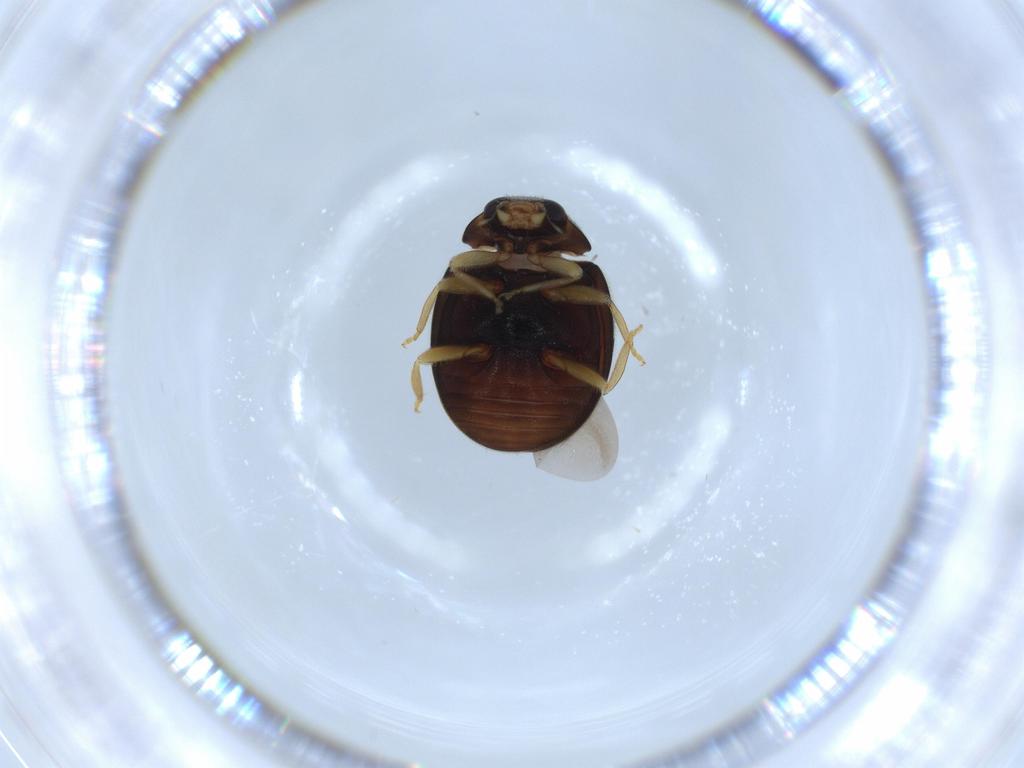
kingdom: Animalia
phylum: Arthropoda
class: Insecta
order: Coleoptera
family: Coccinellidae
